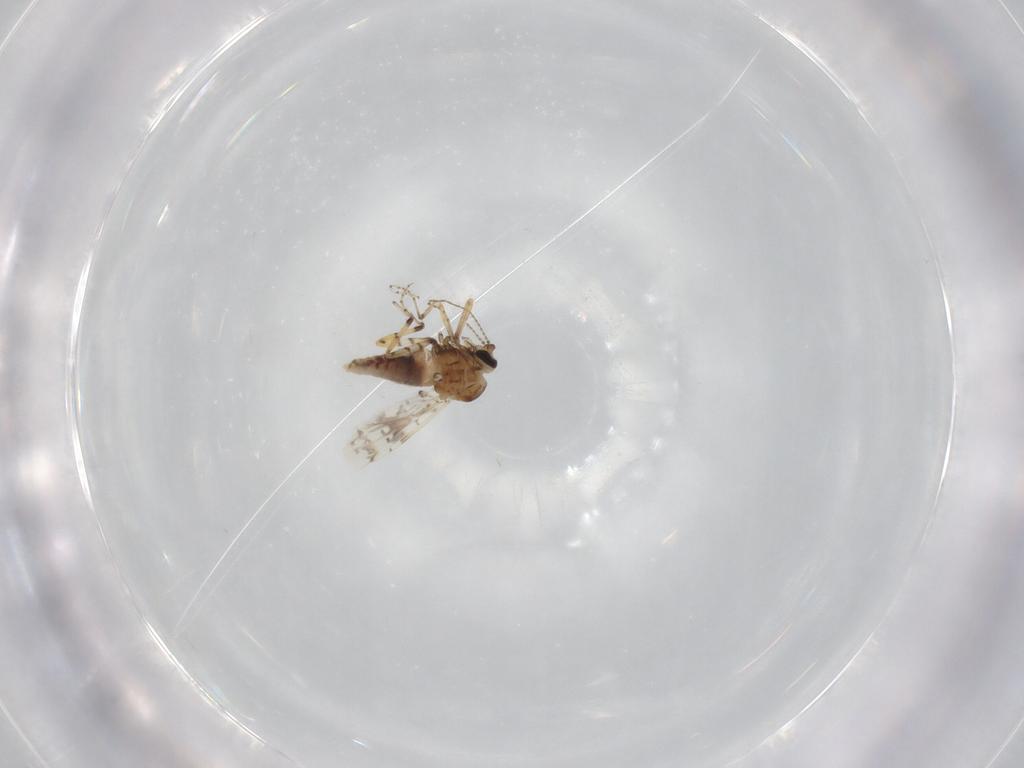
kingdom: Animalia
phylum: Arthropoda
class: Insecta
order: Diptera
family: Ceratopogonidae
